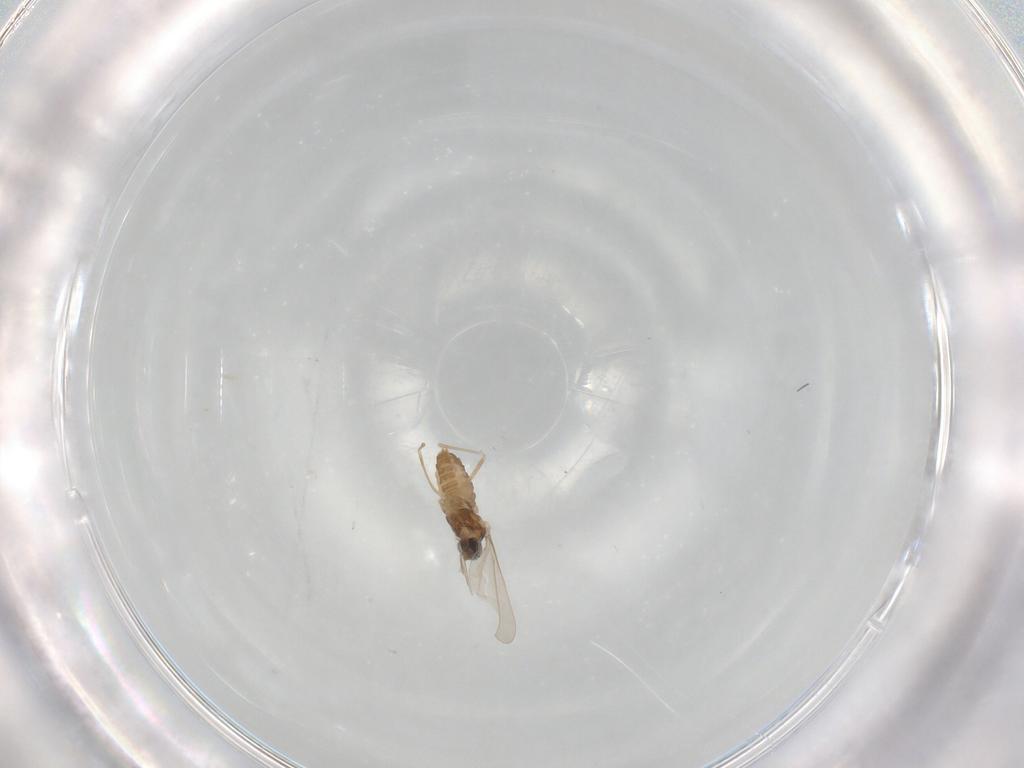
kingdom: Animalia
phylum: Arthropoda
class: Insecta
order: Diptera
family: Cecidomyiidae
